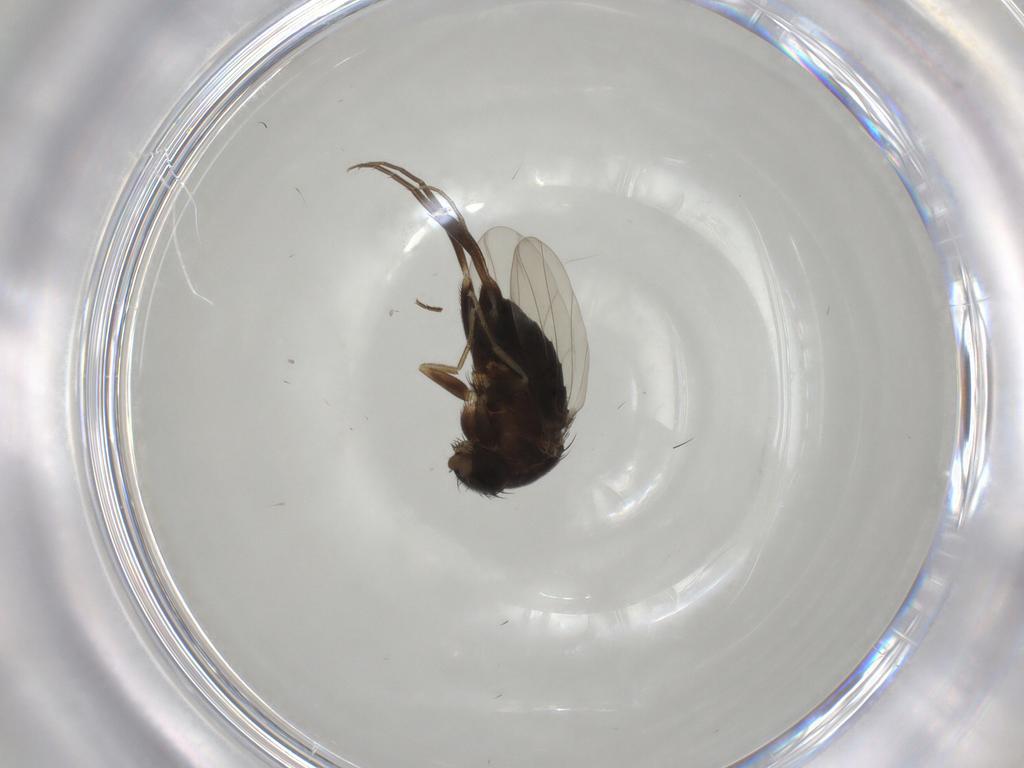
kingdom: Animalia
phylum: Arthropoda
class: Insecta
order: Diptera
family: Phoridae
